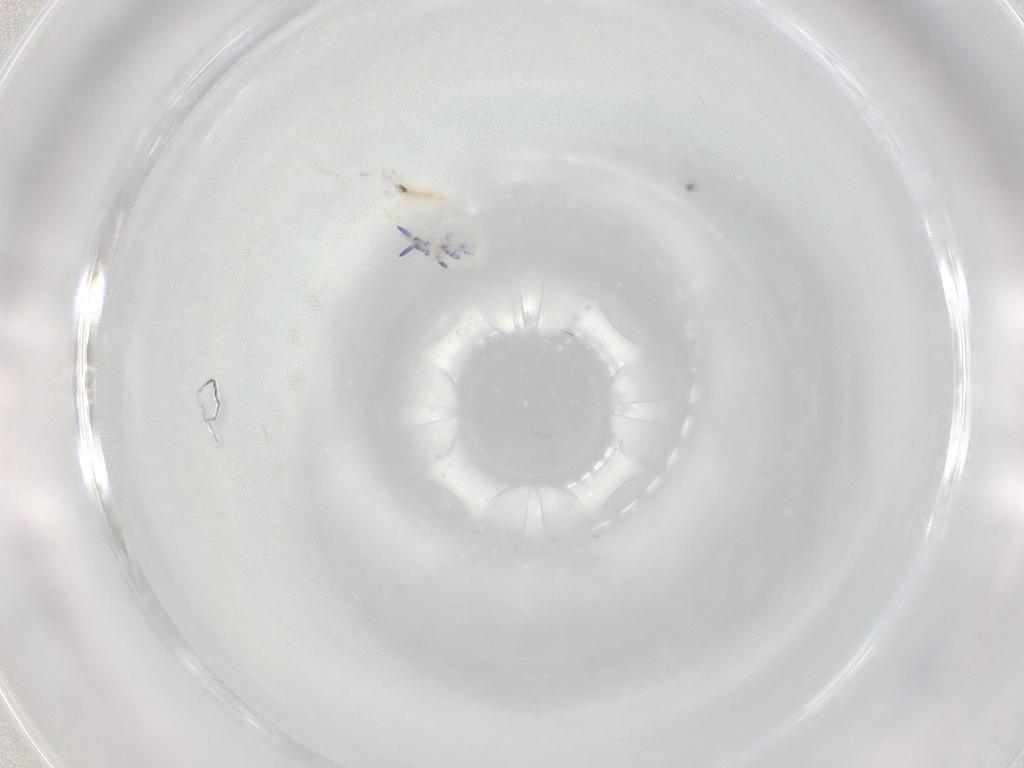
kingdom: Animalia
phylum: Arthropoda
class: Collembola
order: Entomobryomorpha
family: Entomobryidae
